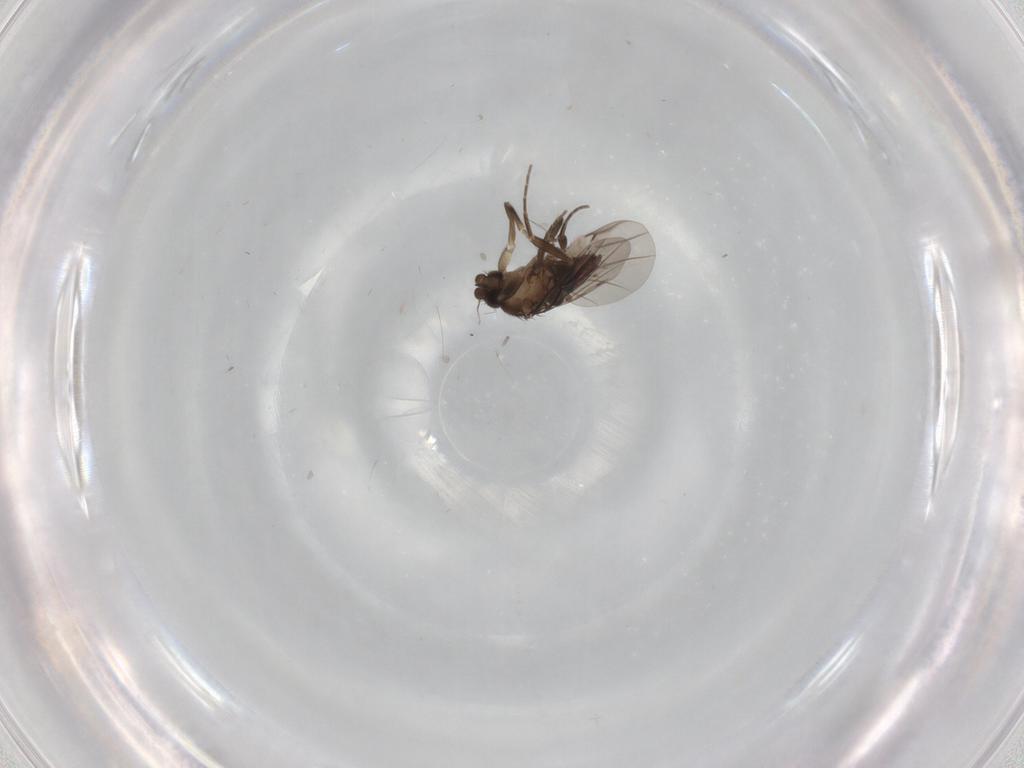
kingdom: Animalia
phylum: Arthropoda
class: Insecta
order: Diptera
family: Phoridae
